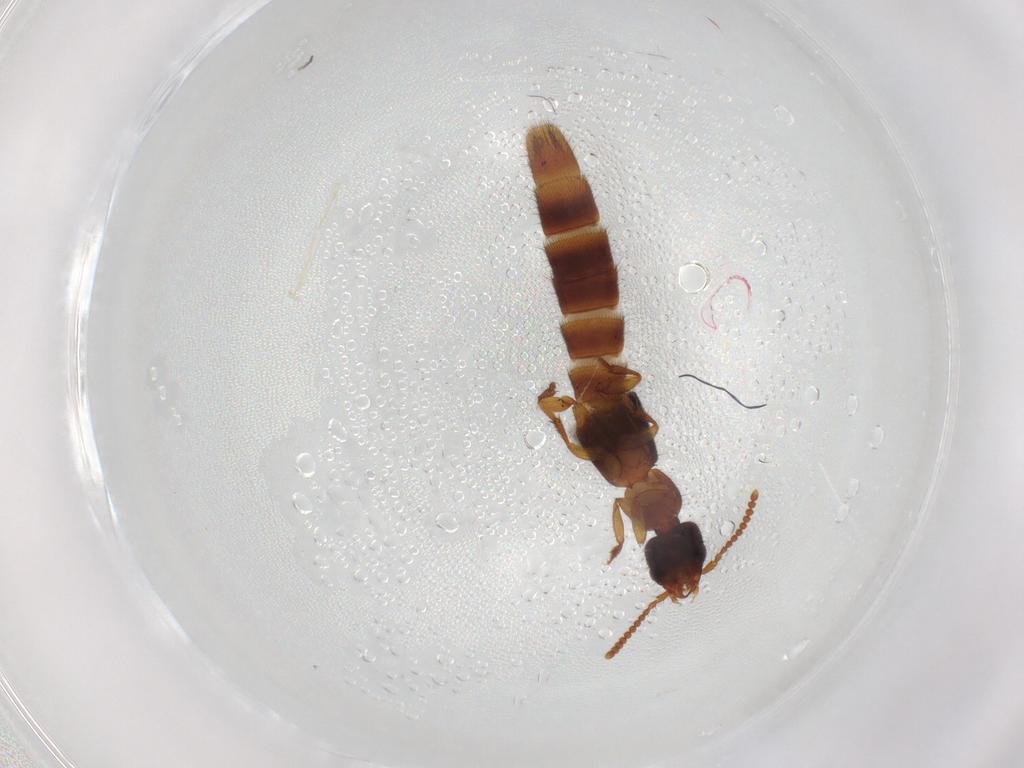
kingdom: Animalia
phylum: Arthropoda
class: Insecta
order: Coleoptera
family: Staphylinidae
